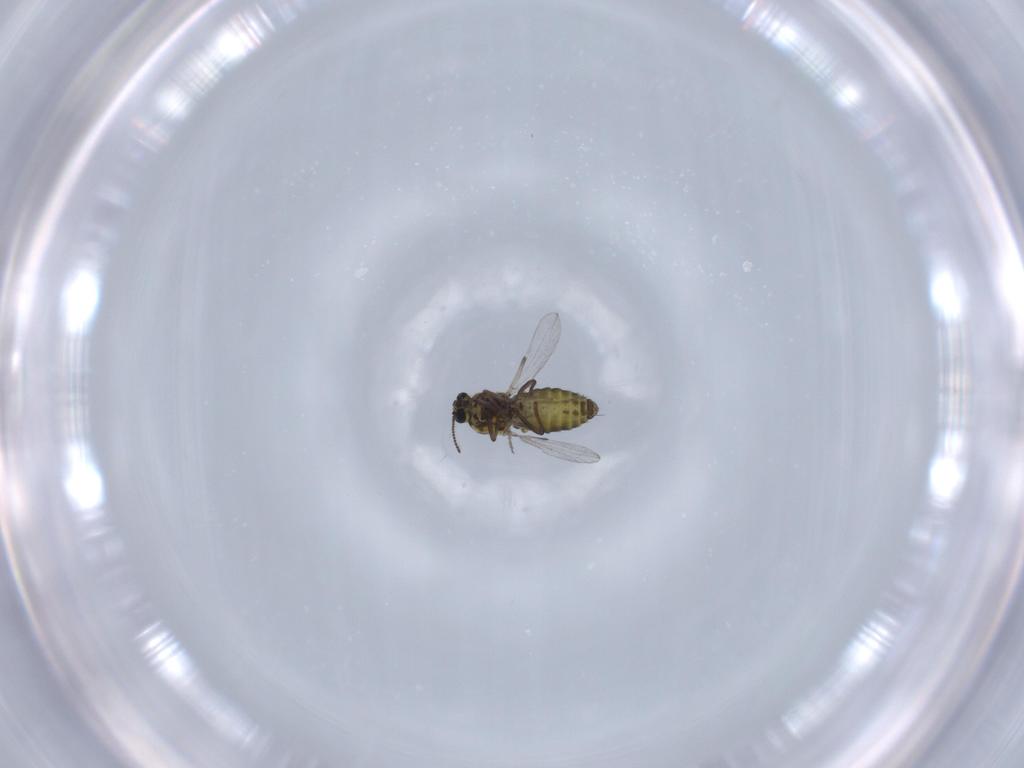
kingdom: Animalia
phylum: Arthropoda
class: Insecta
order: Diptera
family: Ceratopogonidae
